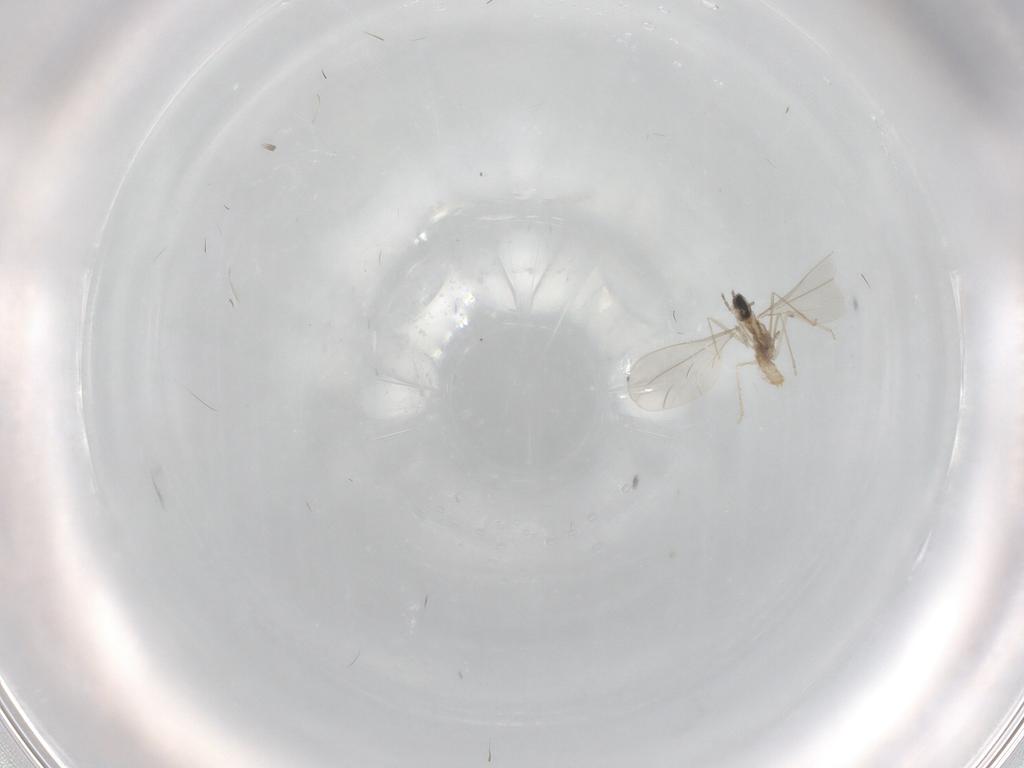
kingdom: Animalia
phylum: Arthropoda
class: Insecta
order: Diptera
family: Cecidomyiidae
